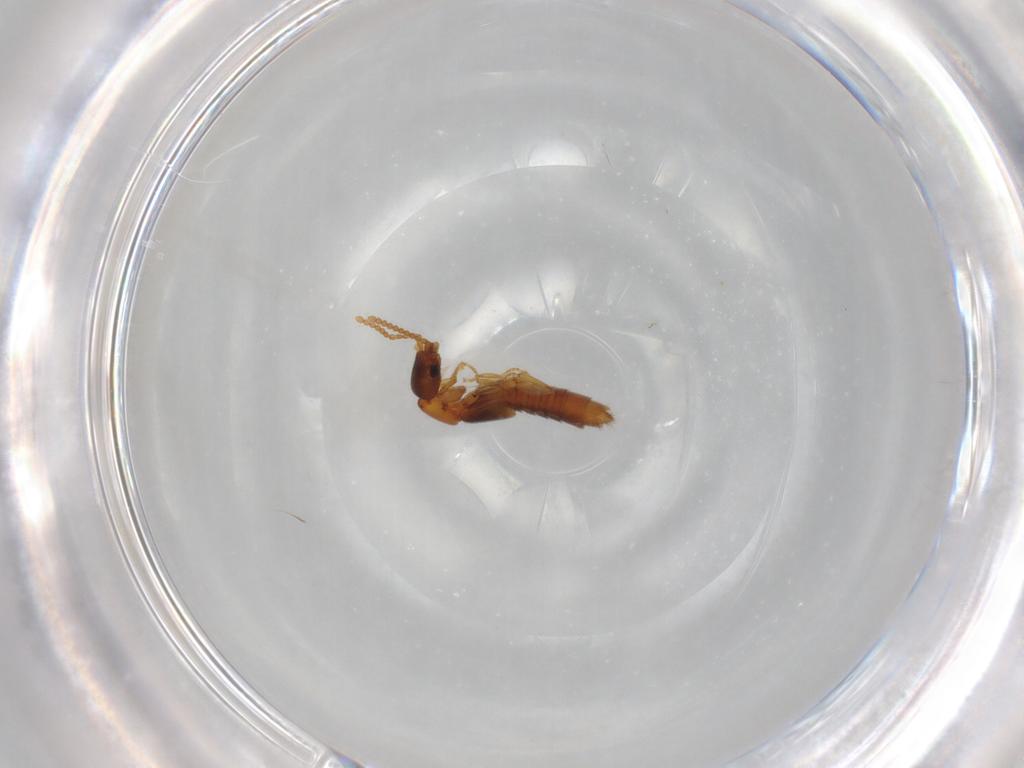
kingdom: Animalia
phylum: Arthropoda
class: Insecta
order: Coleoptera
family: Staphylinidae
